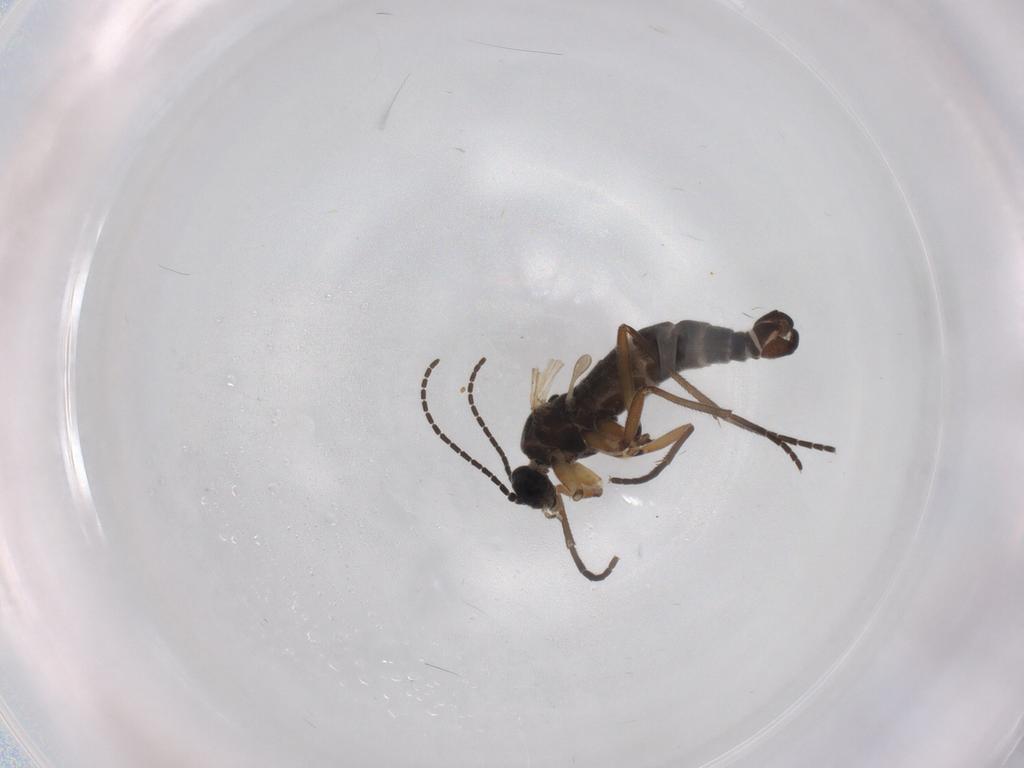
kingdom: Animalia
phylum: Arthropoda
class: Insecta
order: Diptera
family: Sciaridae
